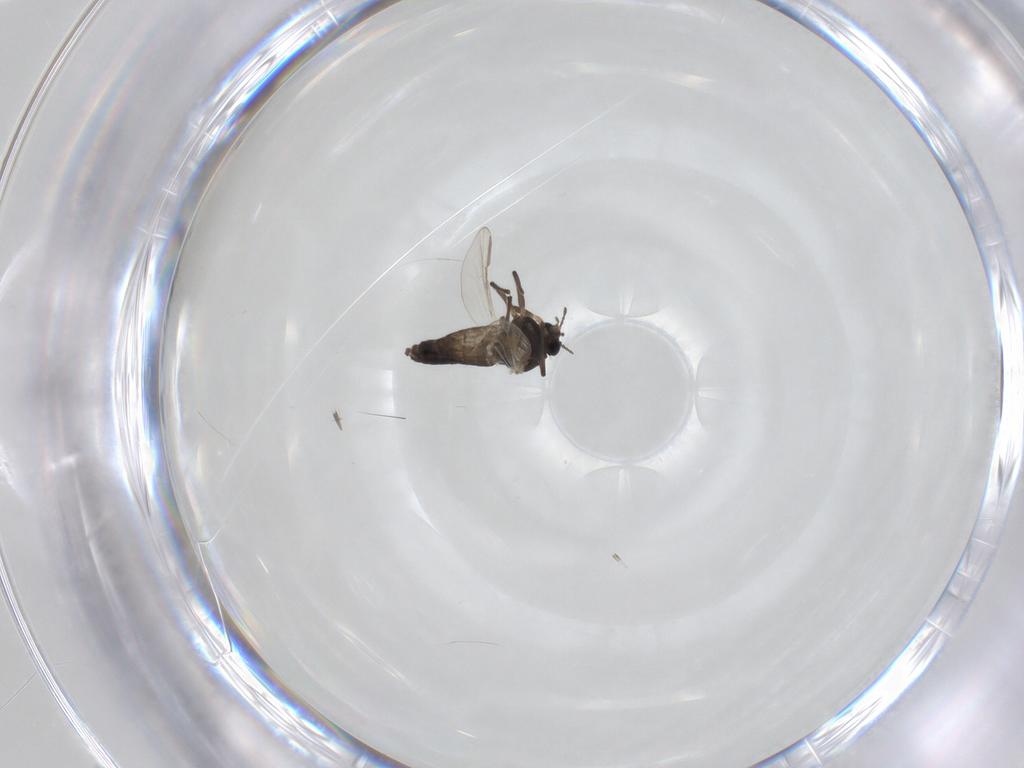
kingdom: Animalia
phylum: Arthropoda
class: Insecta
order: Diptera
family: Chironomidae
